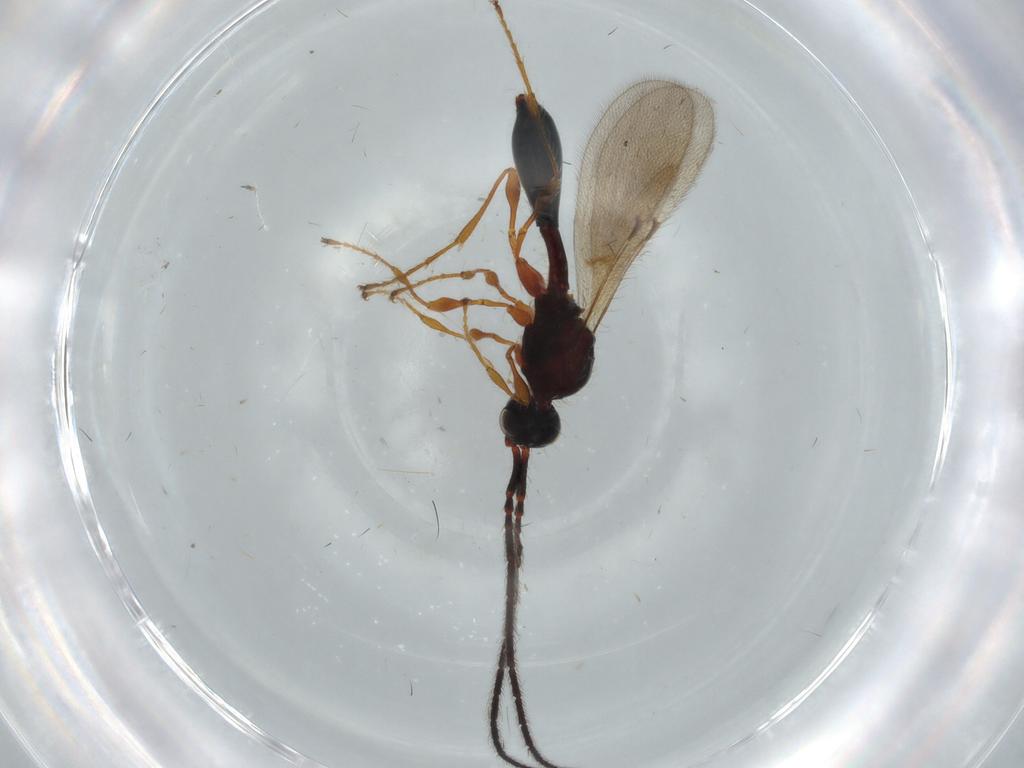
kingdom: Animalia
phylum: Arthropoda
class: Insecta
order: Hymenoptera
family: Diapriidae
